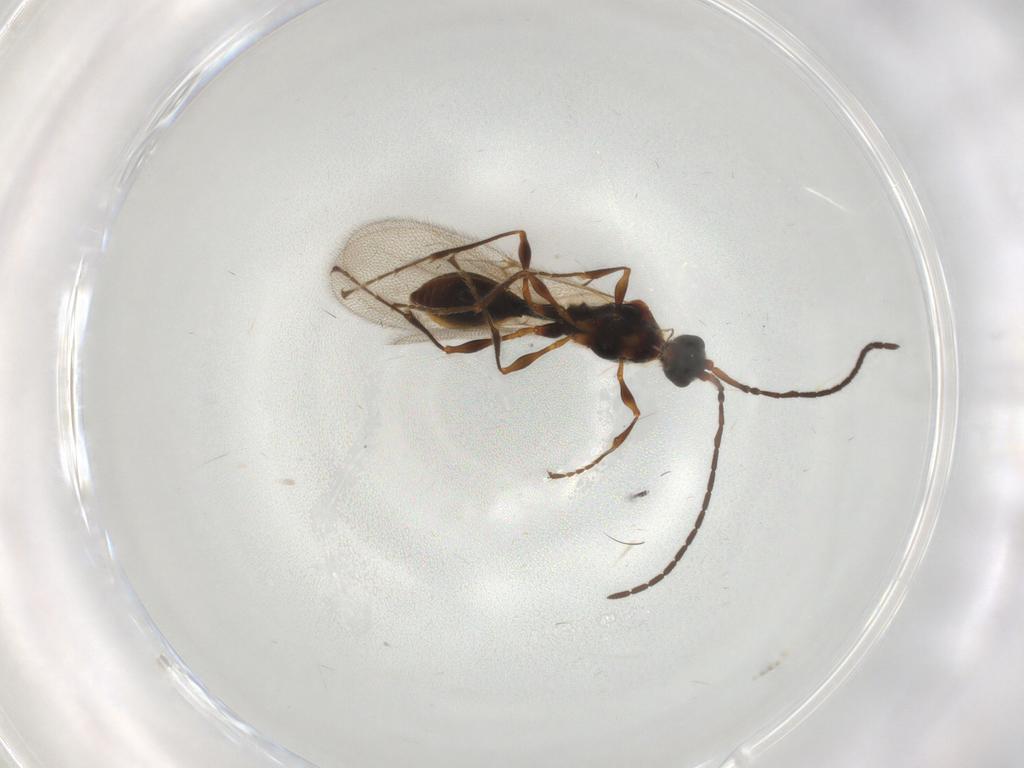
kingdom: Animalia
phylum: Arthropoda
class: Insecta
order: Hymenoptera
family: Diapriidae
